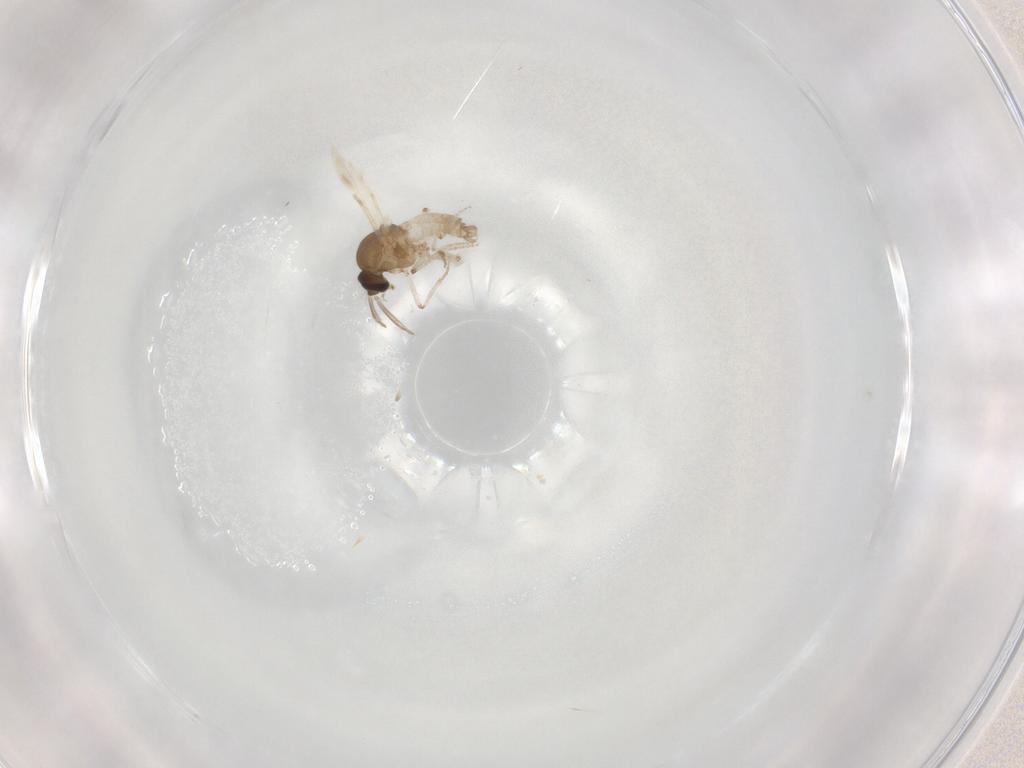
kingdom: Animalia
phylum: Arthropoda
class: Insecta
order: Diptera
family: Ceratopogonidae
